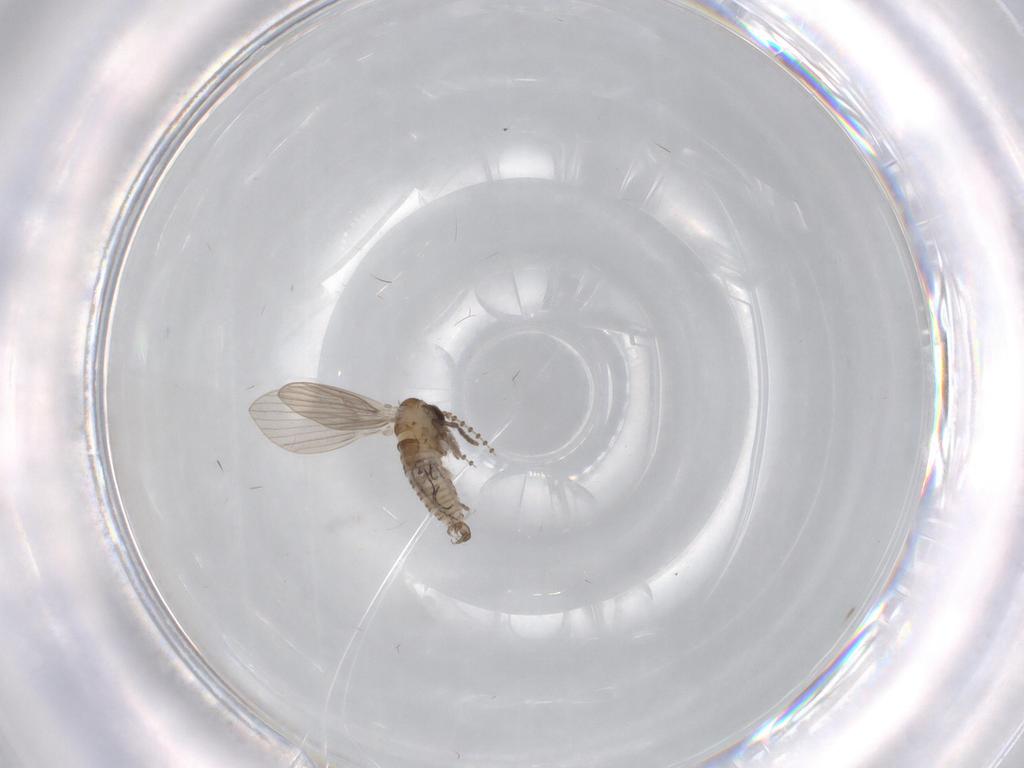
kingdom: Animalia
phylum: Arthropoda
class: Insecta
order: Diptera
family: Psychodidae
